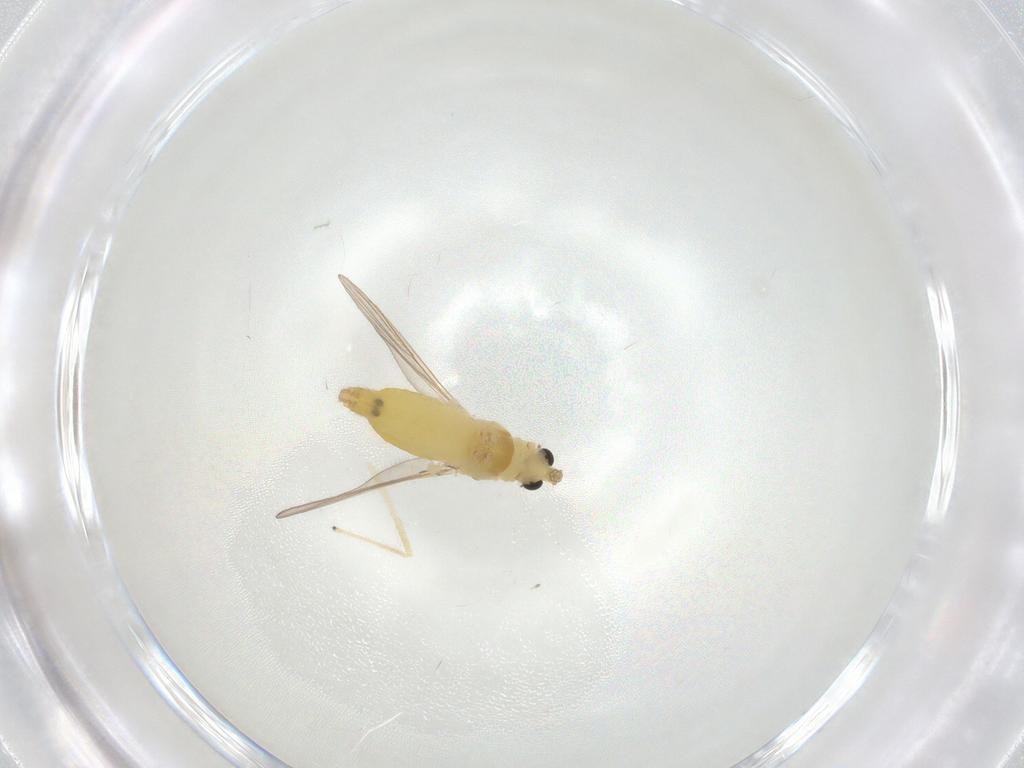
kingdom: Animalia
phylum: Arthropoda
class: Insecta
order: Diptera
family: Chironomidae
